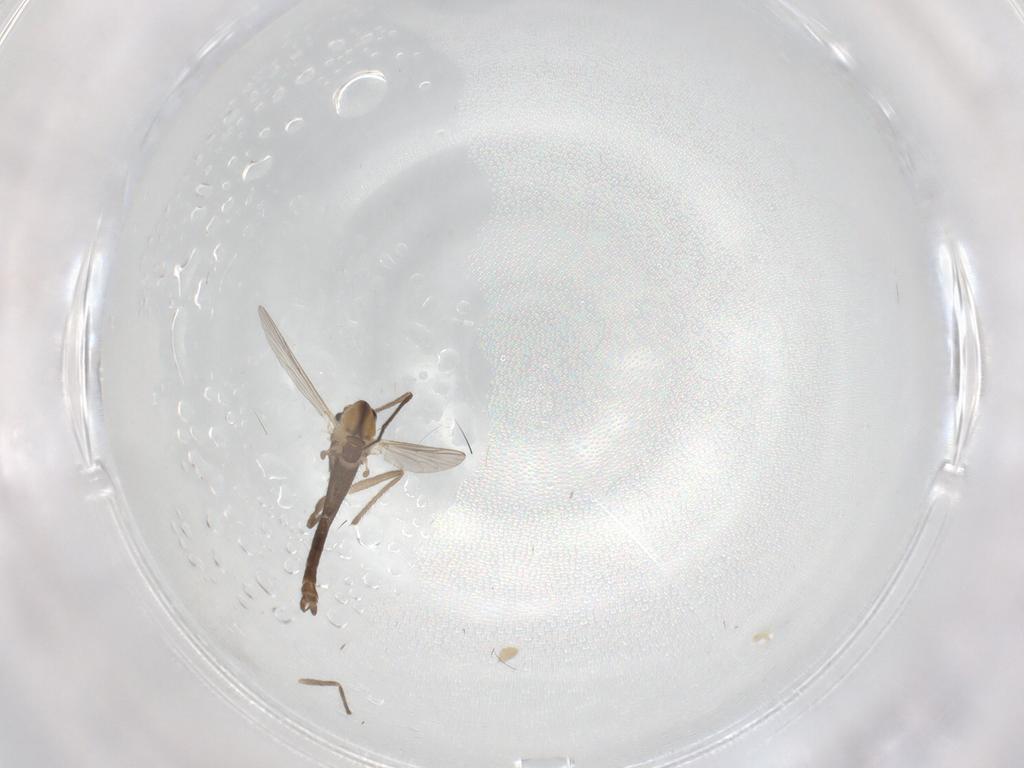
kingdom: Animalia
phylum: Arthropoda
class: Insecta
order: Diptera
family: Chironomidae
